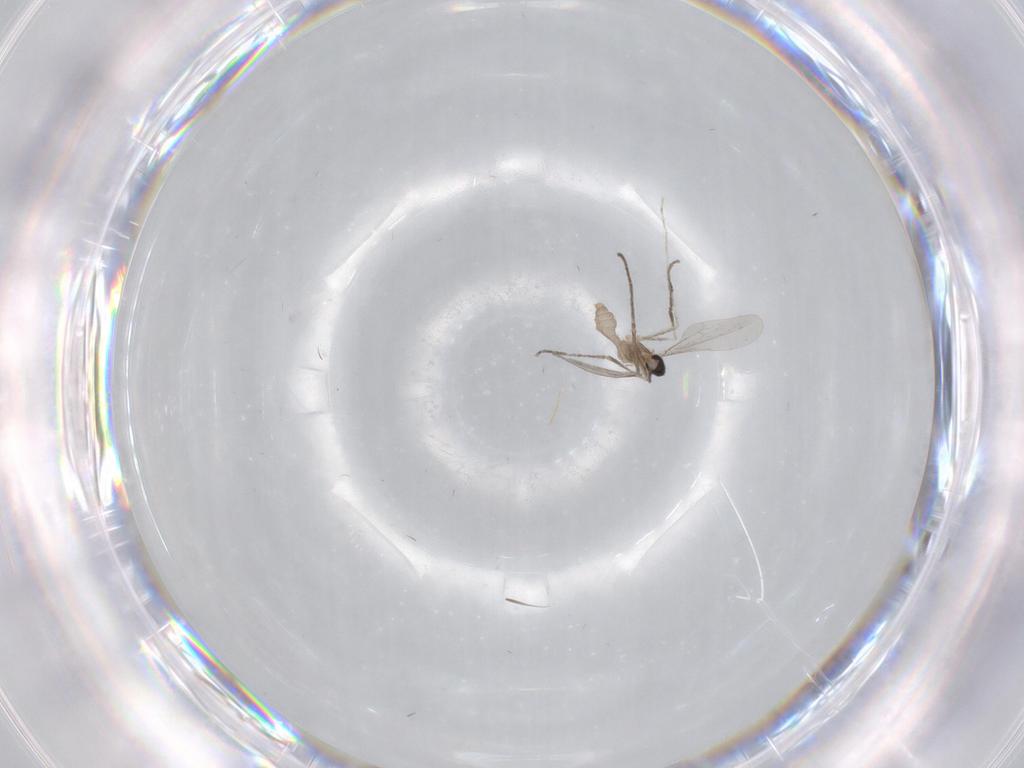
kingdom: Animalia
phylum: Arthropoda
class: Insecta
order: Diptera
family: Cecidomyiidae
